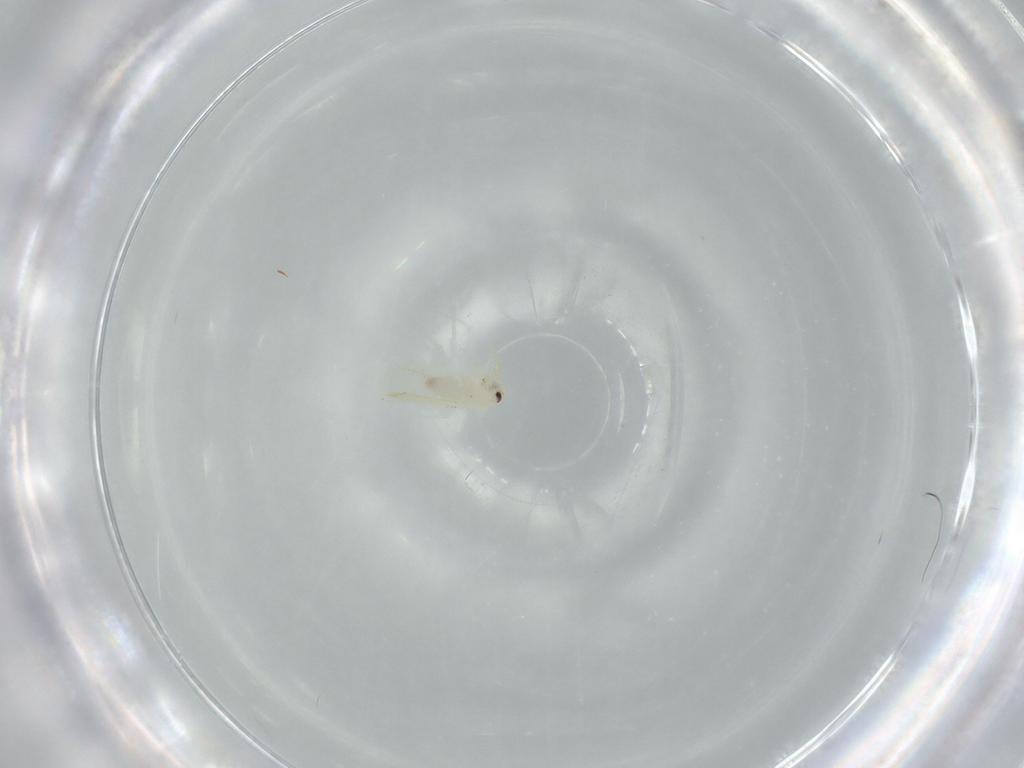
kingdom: Animalia
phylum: Arthropoda
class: Insecta
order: Hemiptera
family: Aleyrodidae
